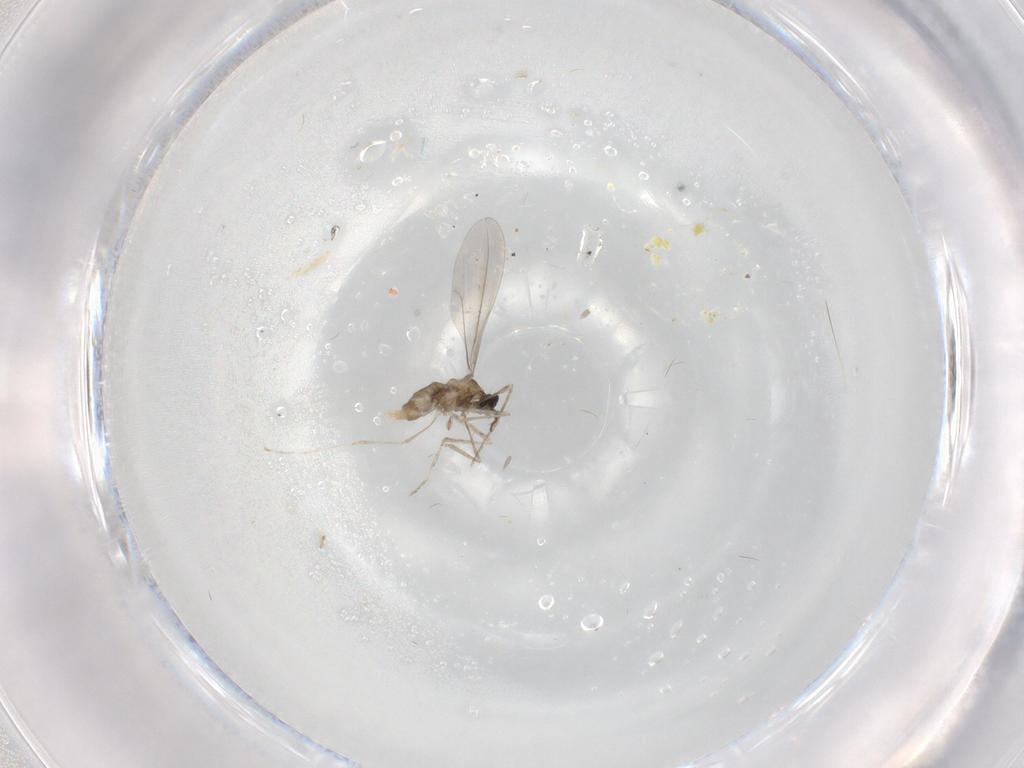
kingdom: Animalia
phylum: Arthropoda
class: Insecta
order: Diptera
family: Cecidomyiidae
